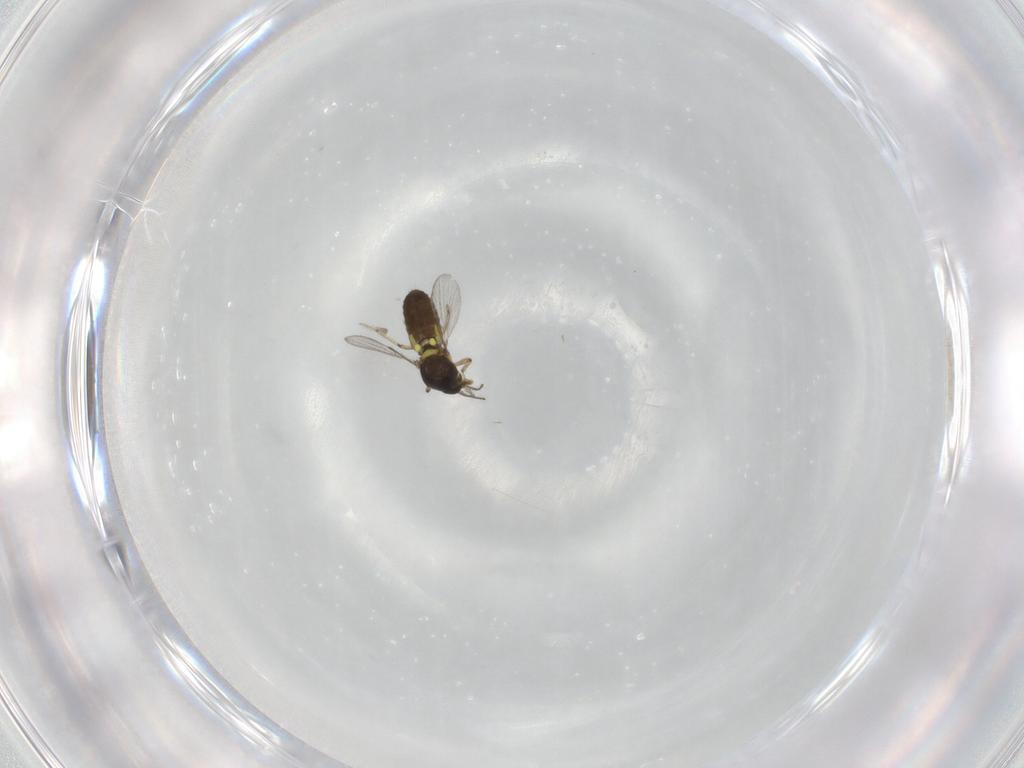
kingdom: Animalia
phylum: Arthropoda
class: Insecta
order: Diptera
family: Ceratopogonidae
